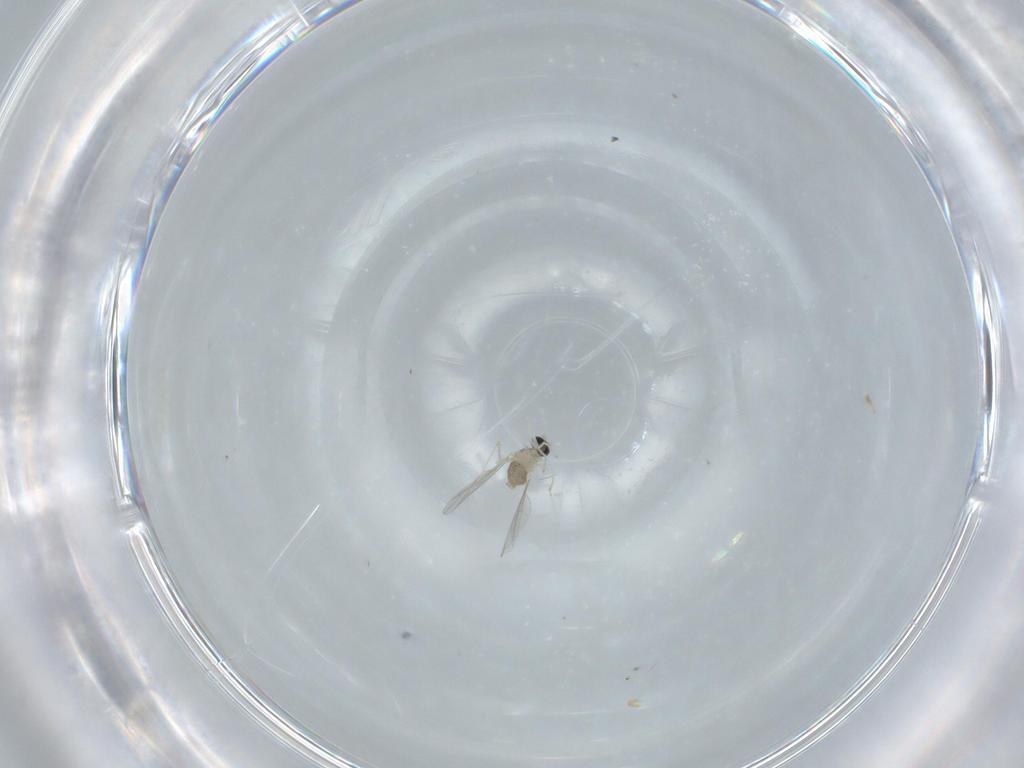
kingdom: Animalia
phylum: Arthropoda
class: Insecta
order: Diptera
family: Cecidomyiidae
